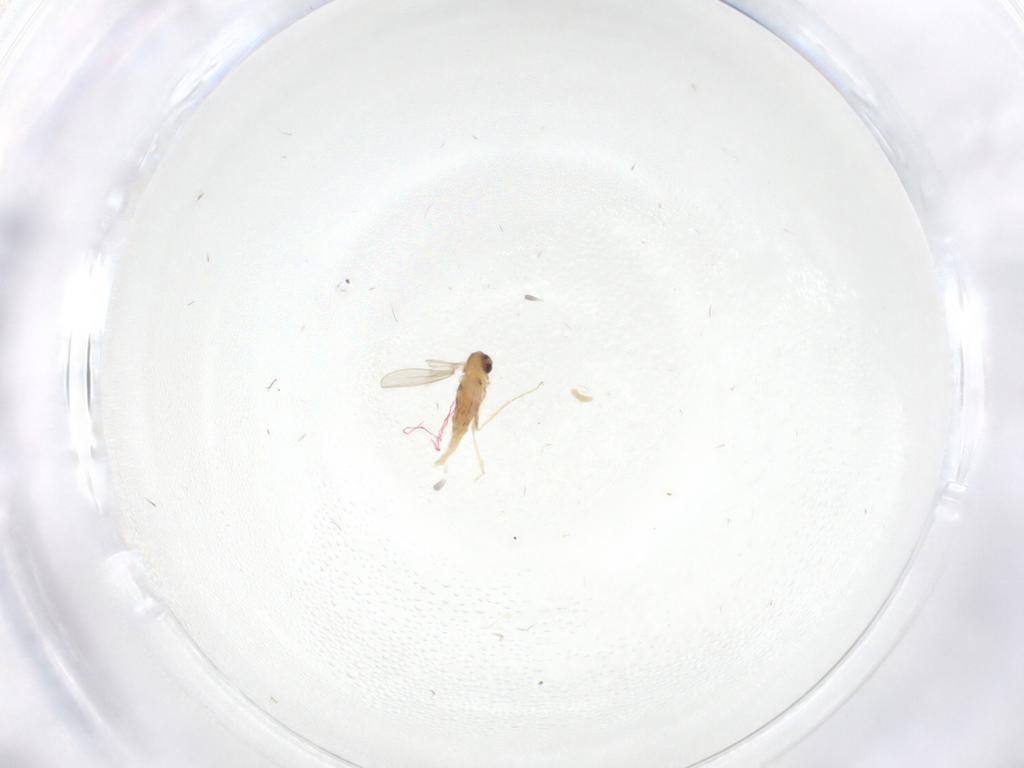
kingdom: Animalia
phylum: Arthropoda
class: Insecta
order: Diptera
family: Cecidomyiidae
